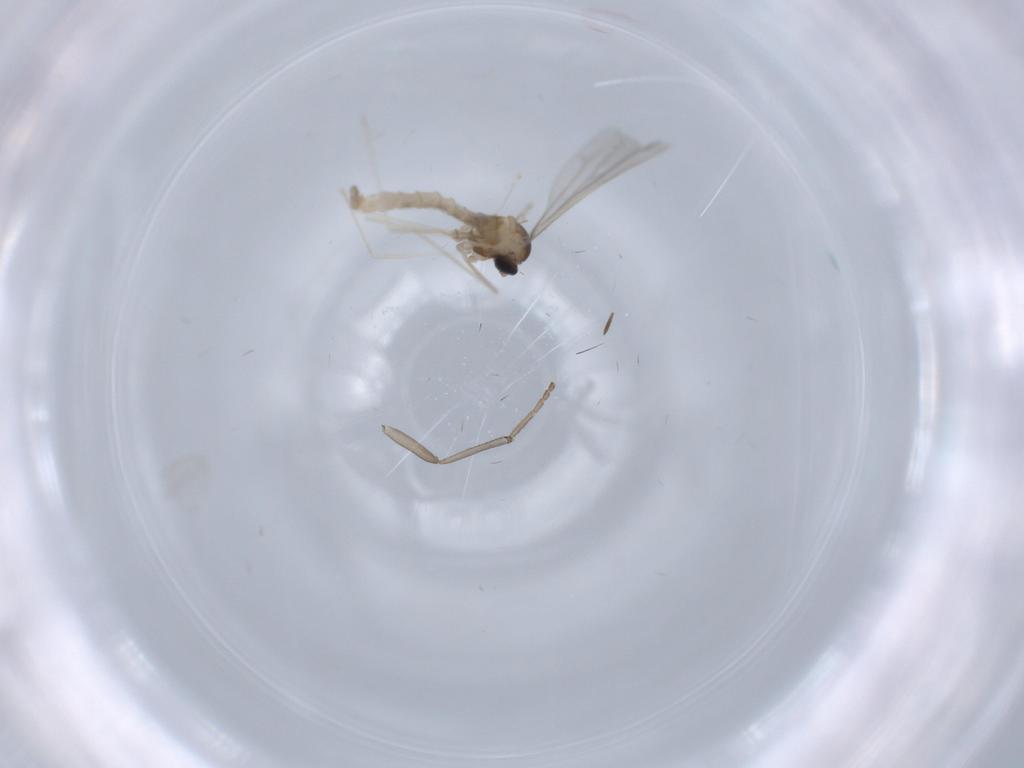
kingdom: Animalia
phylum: Arthropoda
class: Insecta
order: Diptera
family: Cecidomyiidae
